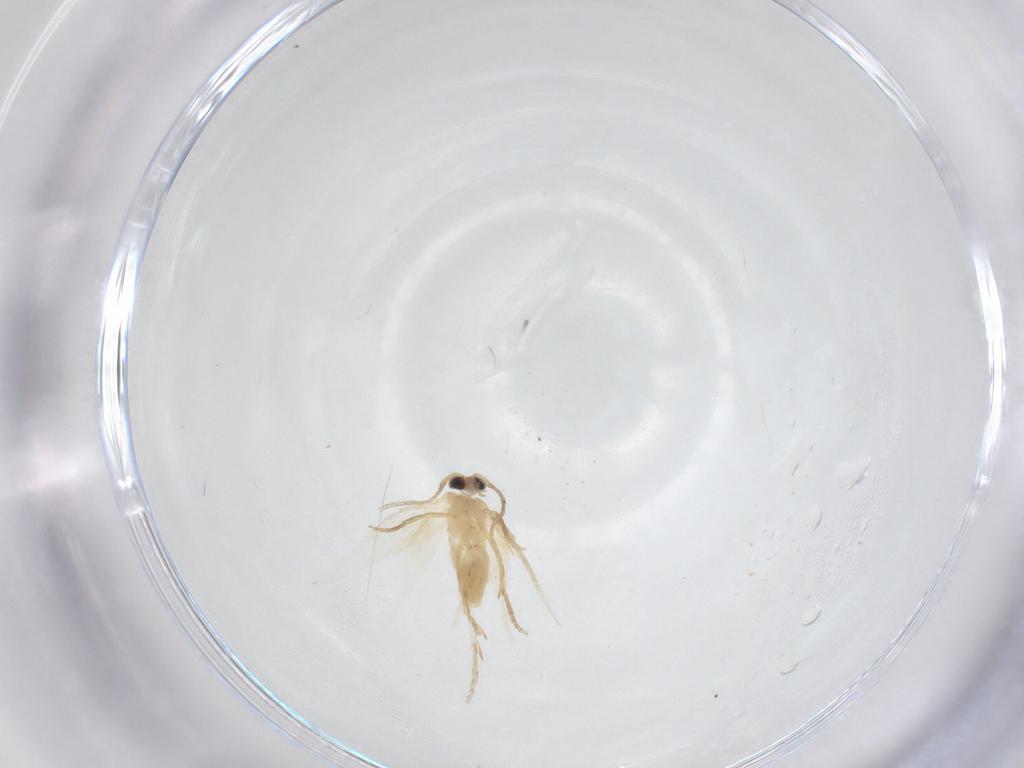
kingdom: Animalia
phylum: Arthropoda
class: Insecta
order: Lepidoptera
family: Nepticulidae
